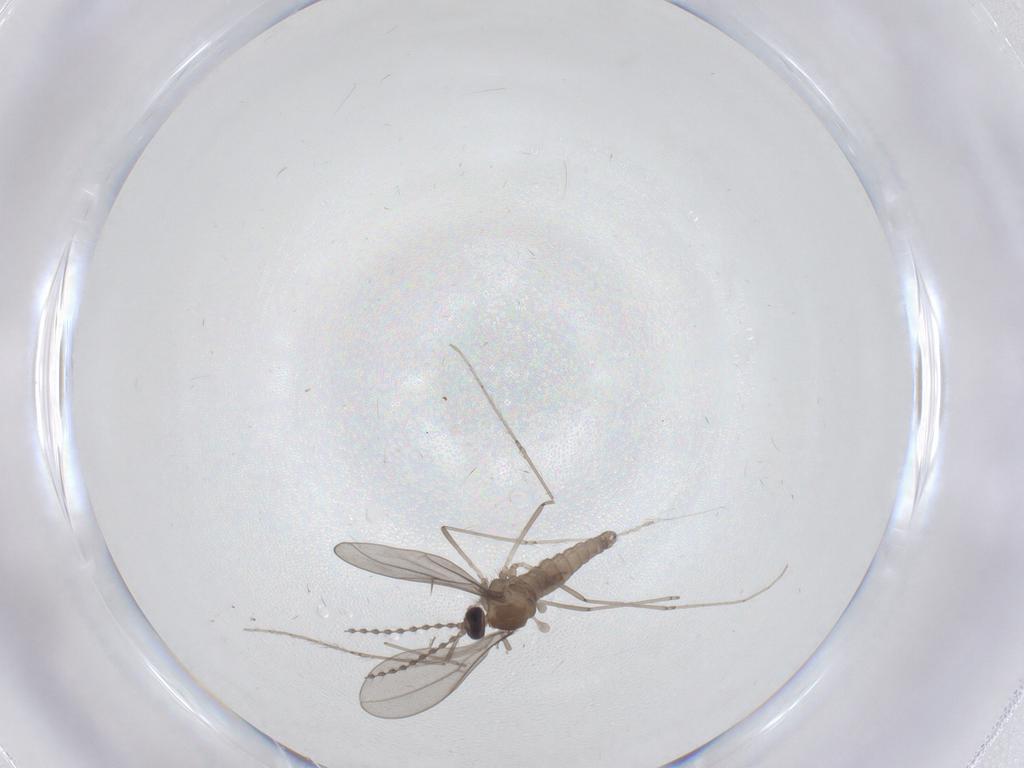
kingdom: Animalia
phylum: Arthropoda
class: Insecta
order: Diptera
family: Cecidomyiidae
